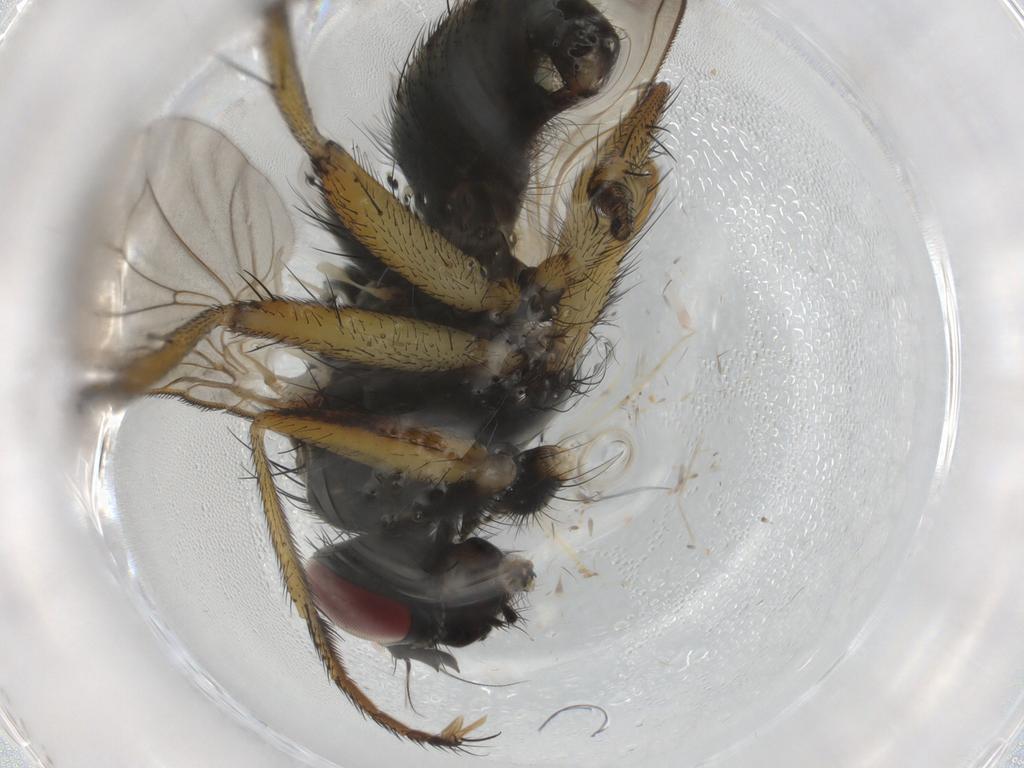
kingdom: Animalia
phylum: Arthropoda
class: Insecta
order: Diptera
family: Muscidae
